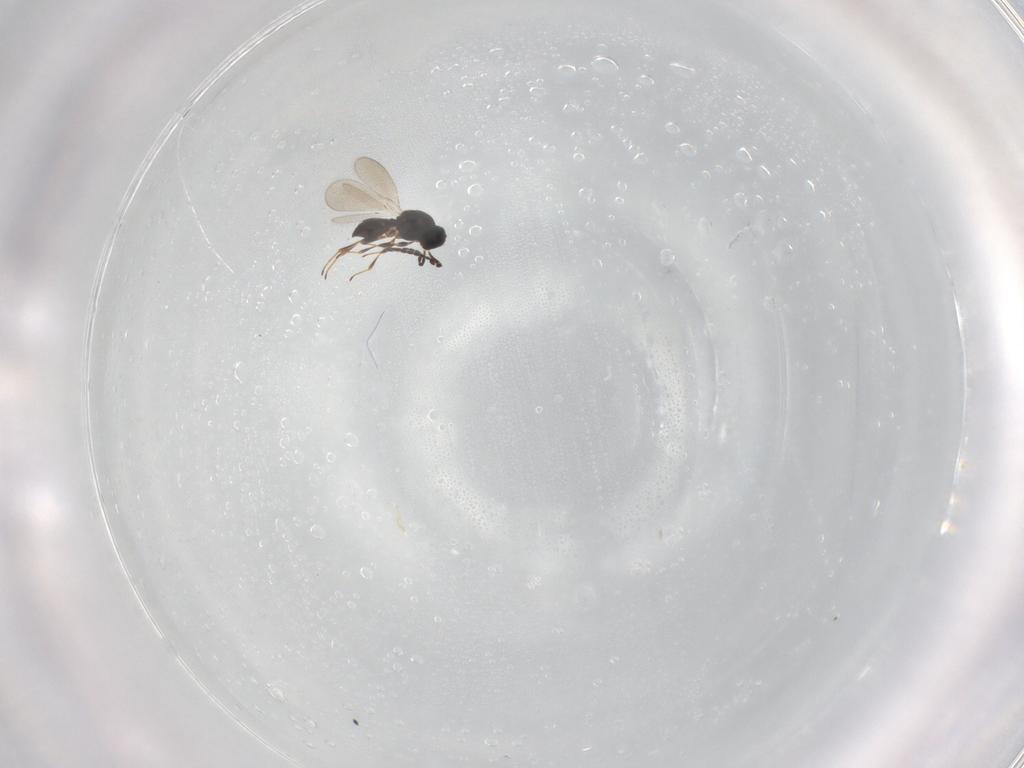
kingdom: Animalia
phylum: Arthropoda
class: Insecta
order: Hymenoptera
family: Platygastridae
